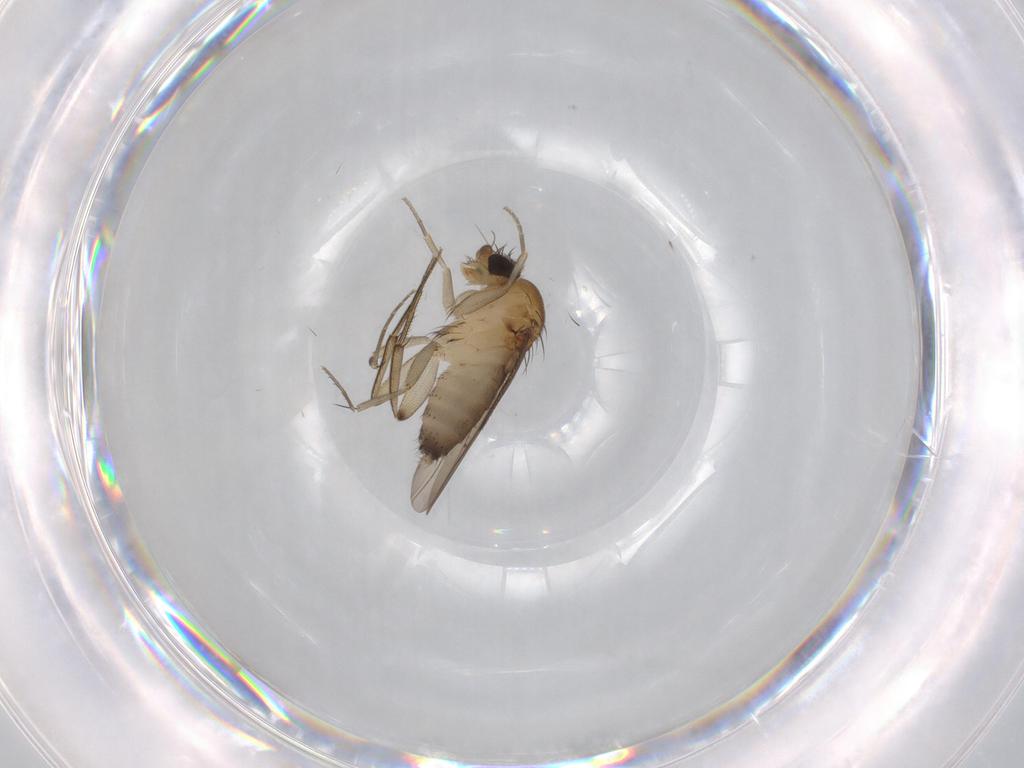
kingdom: Animalia
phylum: Arthropoda
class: Insecta
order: Diptera
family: Phoridae
